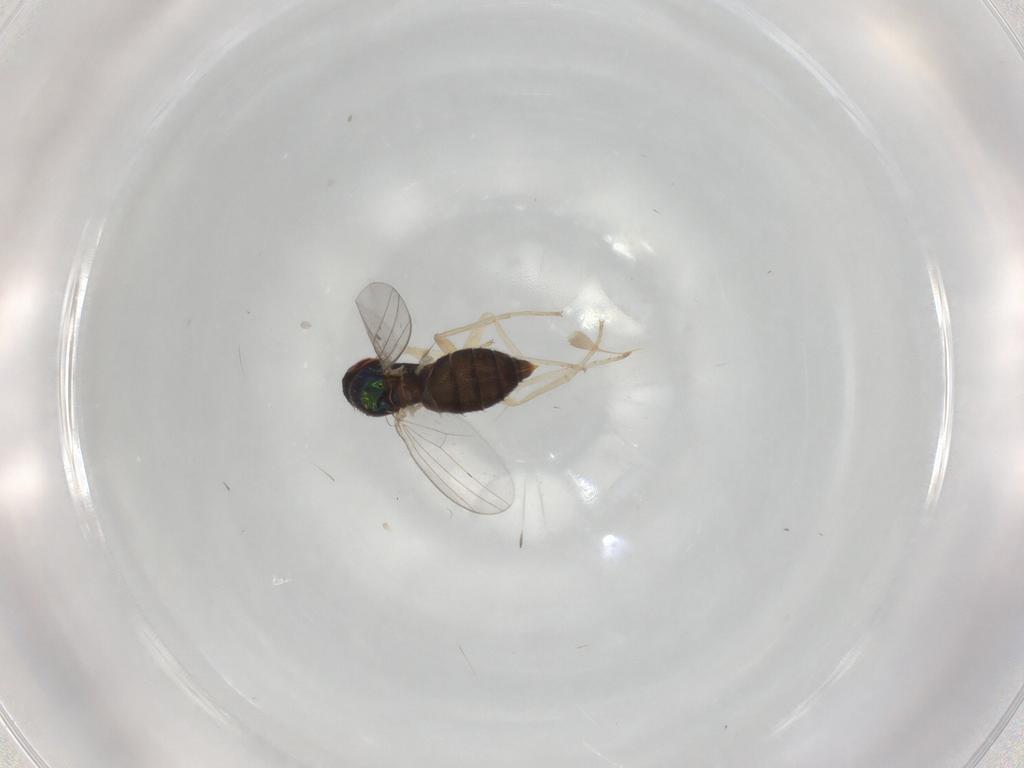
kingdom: Animalia
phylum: Arthropoda
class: Insecta
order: Diptera
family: Dolichopodidae
